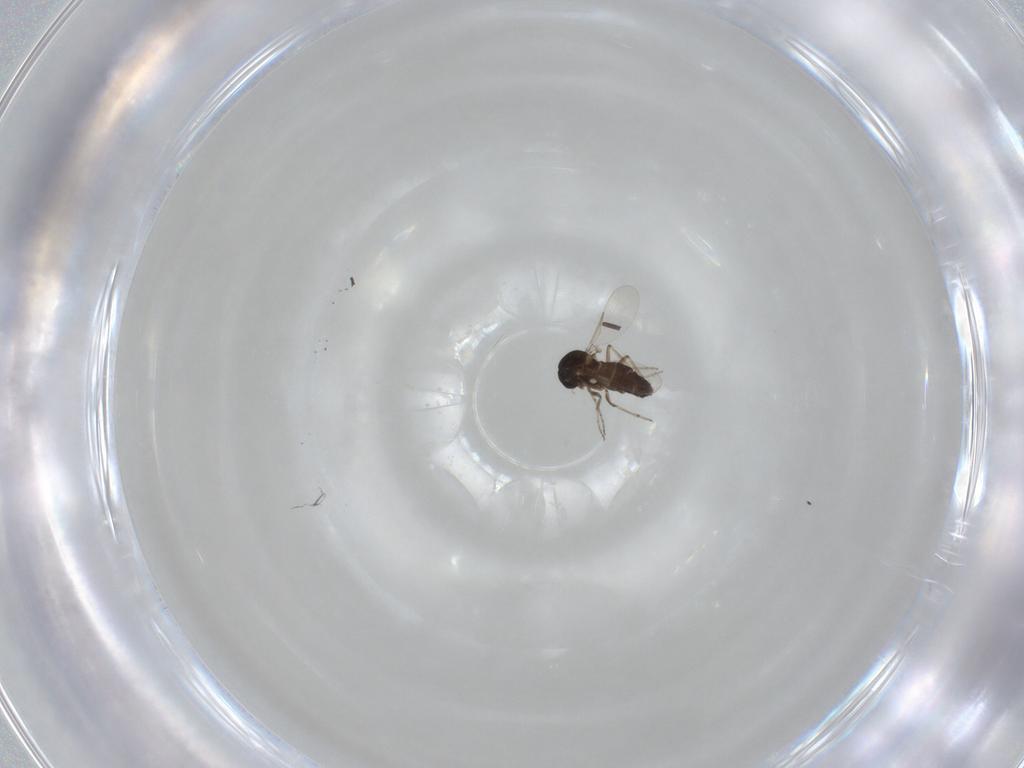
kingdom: Animalia
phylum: Arthropoda
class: Insecta
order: Diptera
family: Ceratopogonidae
